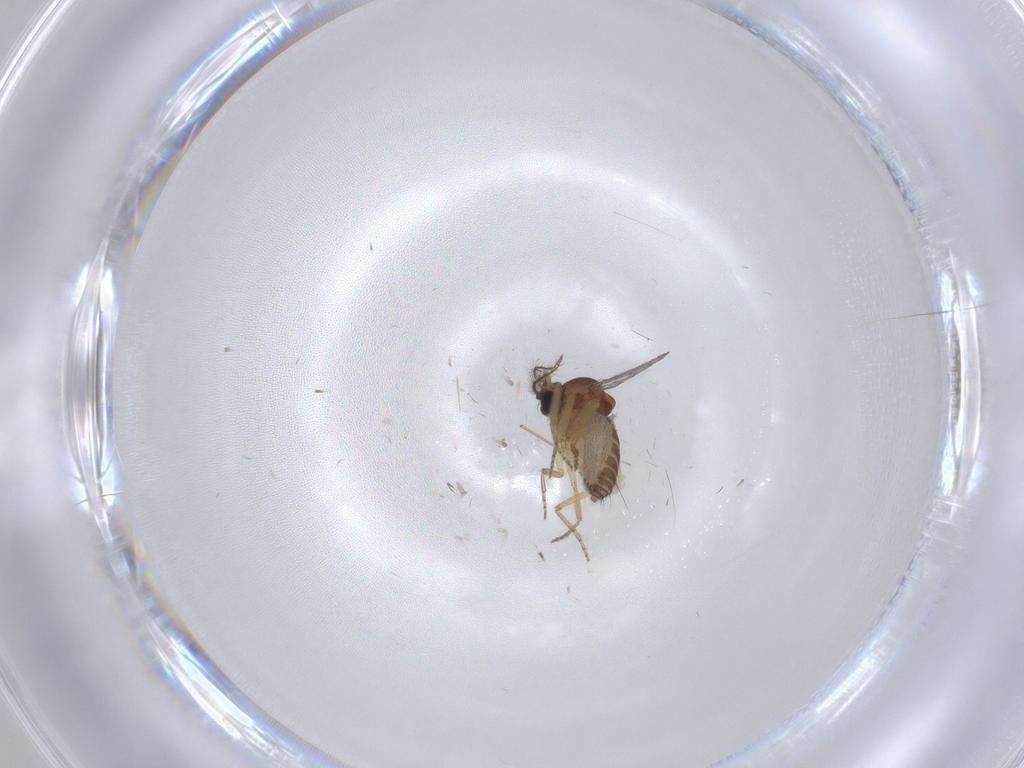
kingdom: Animalia
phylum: Arthropoda
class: Insecta
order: Diptera
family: Chironomidae
